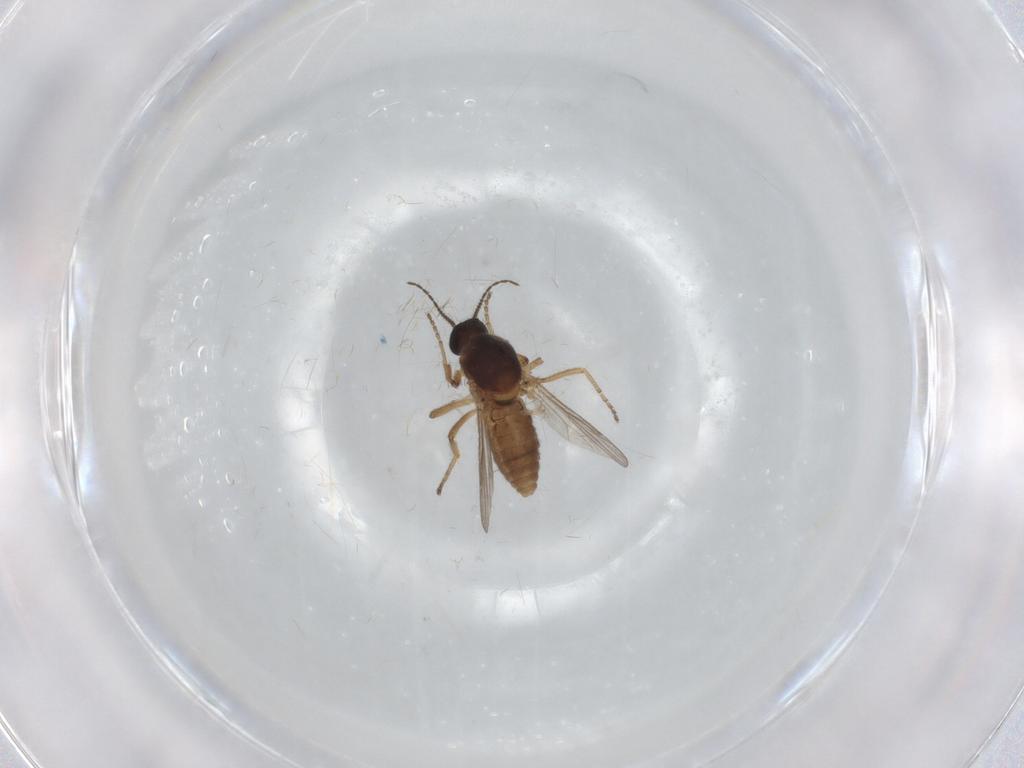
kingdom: Animalia
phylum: Arthropoda
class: Insecta
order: Diptera
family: Ceratopogonidae
